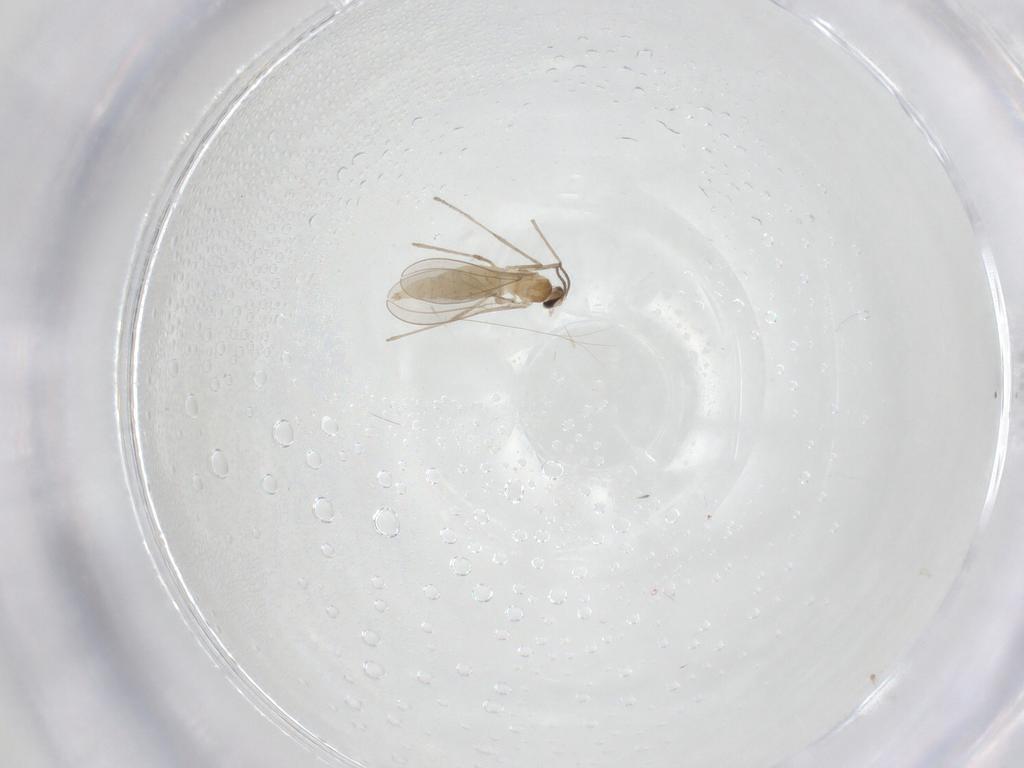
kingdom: Animalia
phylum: Arthropoda
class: Insecta
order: Diptera
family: Cecidomyiidae
